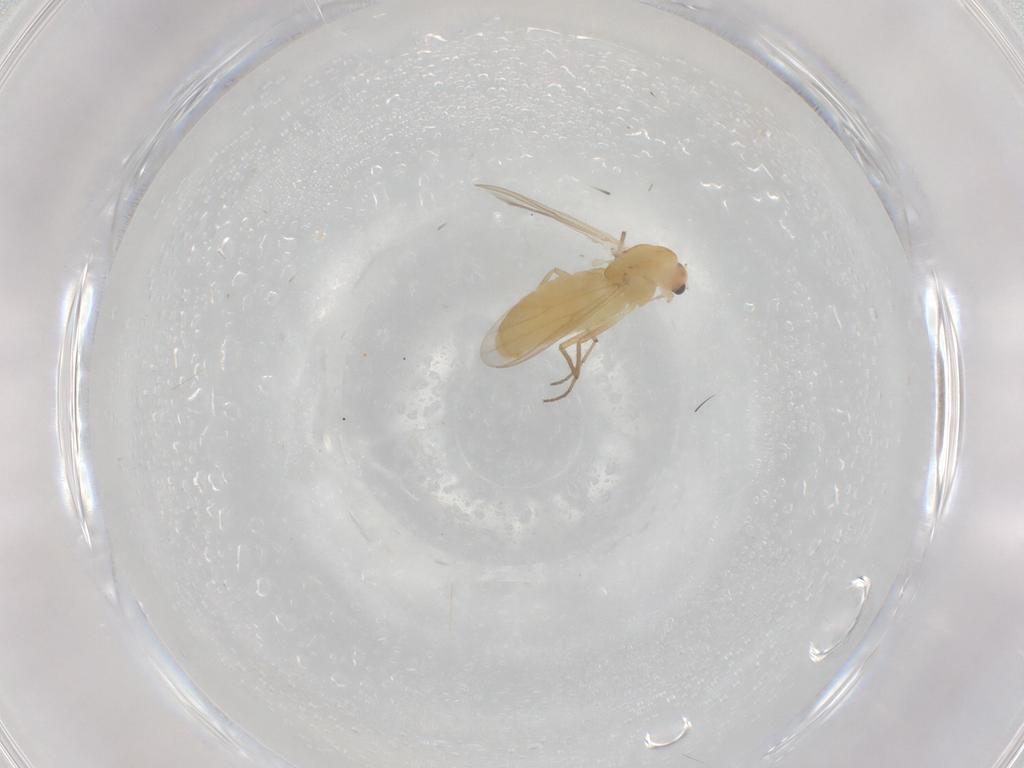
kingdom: Animalia
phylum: Arthropoda
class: Insecta
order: Diptera
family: Chironomidae
